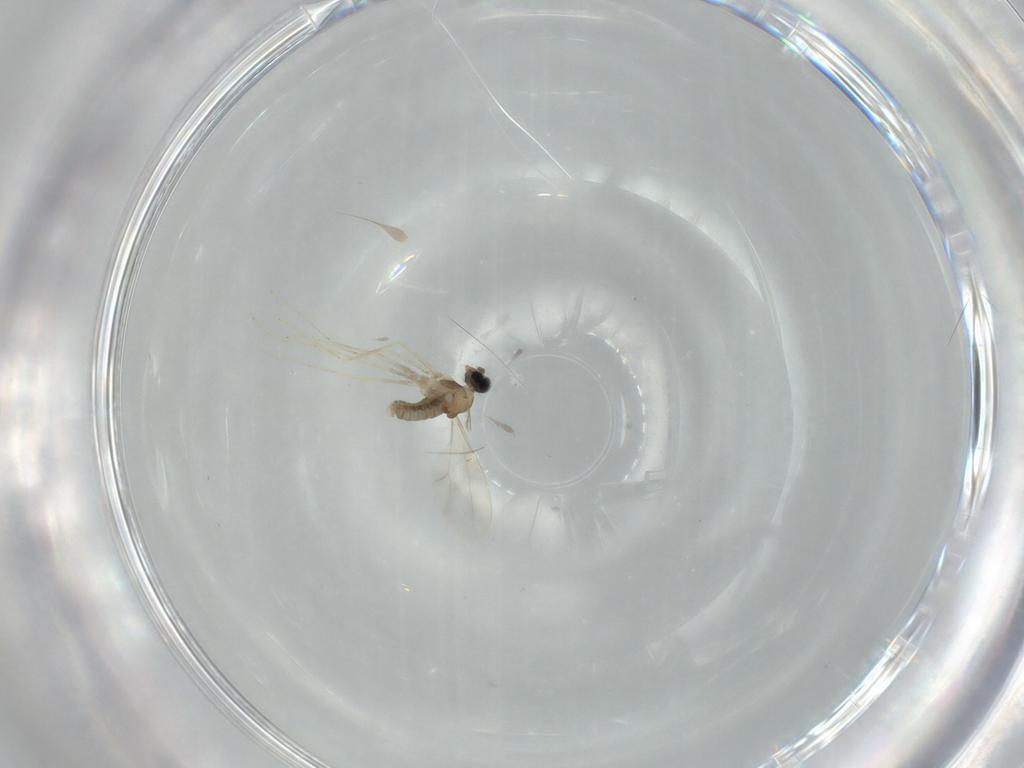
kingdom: Animalia
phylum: Arthropoda
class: Insecta
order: Diptera
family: Cecidomyiidae
